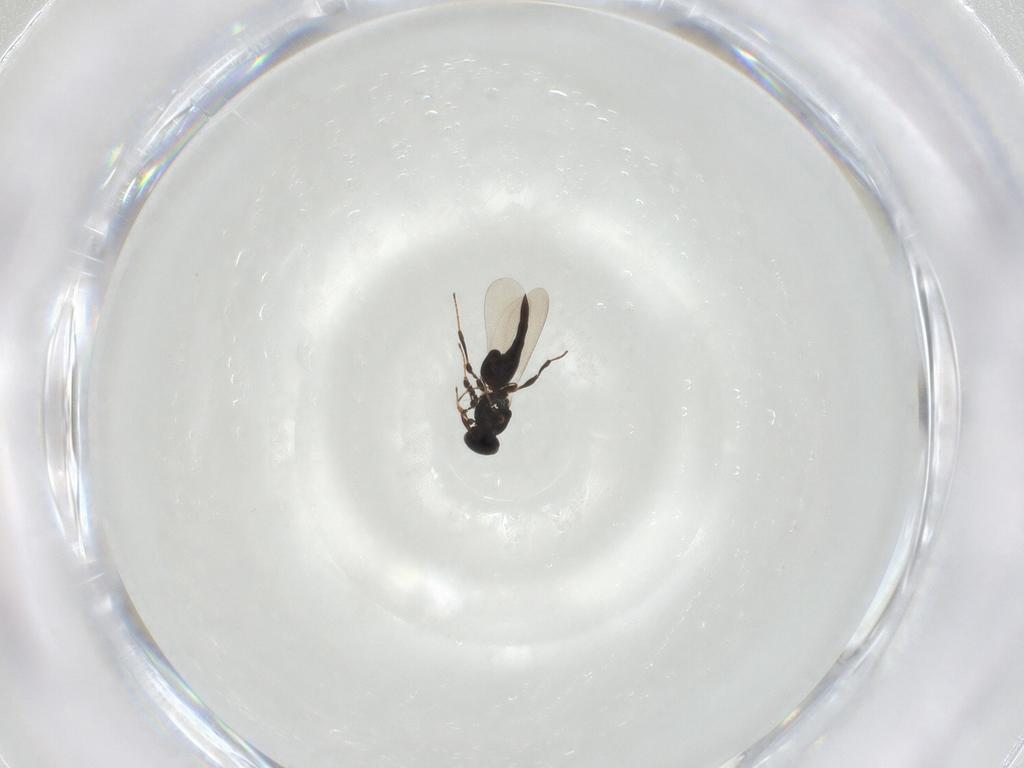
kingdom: Animalia
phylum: Arthropoda
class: Insecta
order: Hymenoptera
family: Platygastridae
